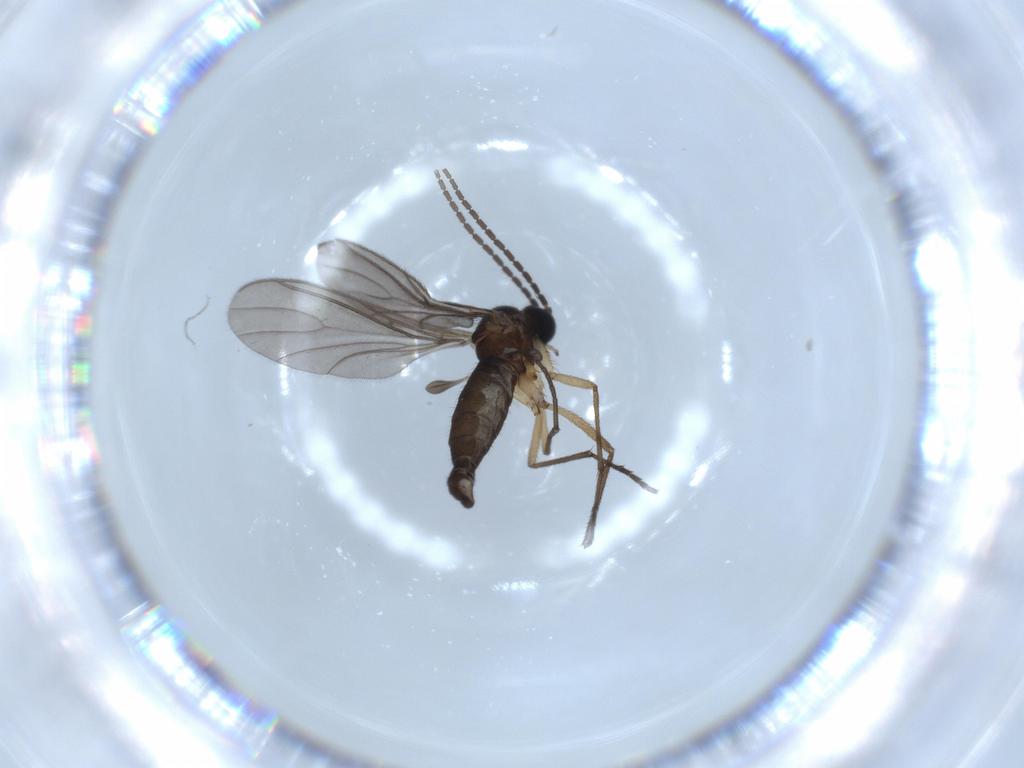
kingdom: Animalia
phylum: Arthropoda
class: Insecta
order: Diptera
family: Sciaridae
